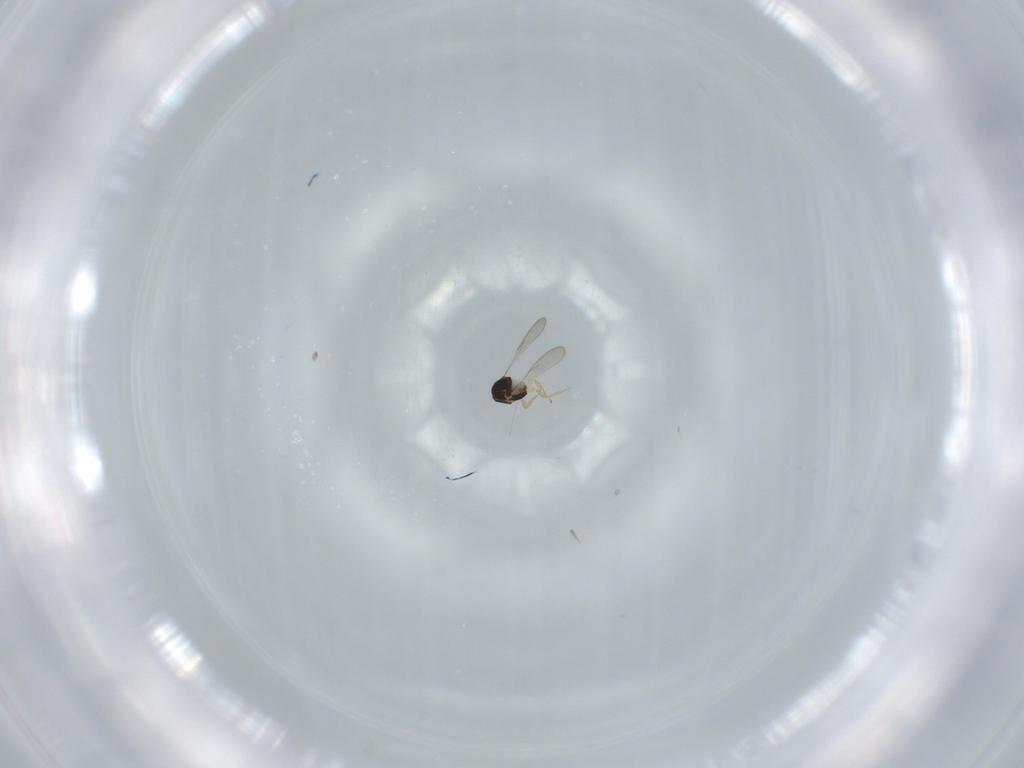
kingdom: Animalia
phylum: Arthropoda
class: Insecta
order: Hymenoptera
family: Scelionidae
